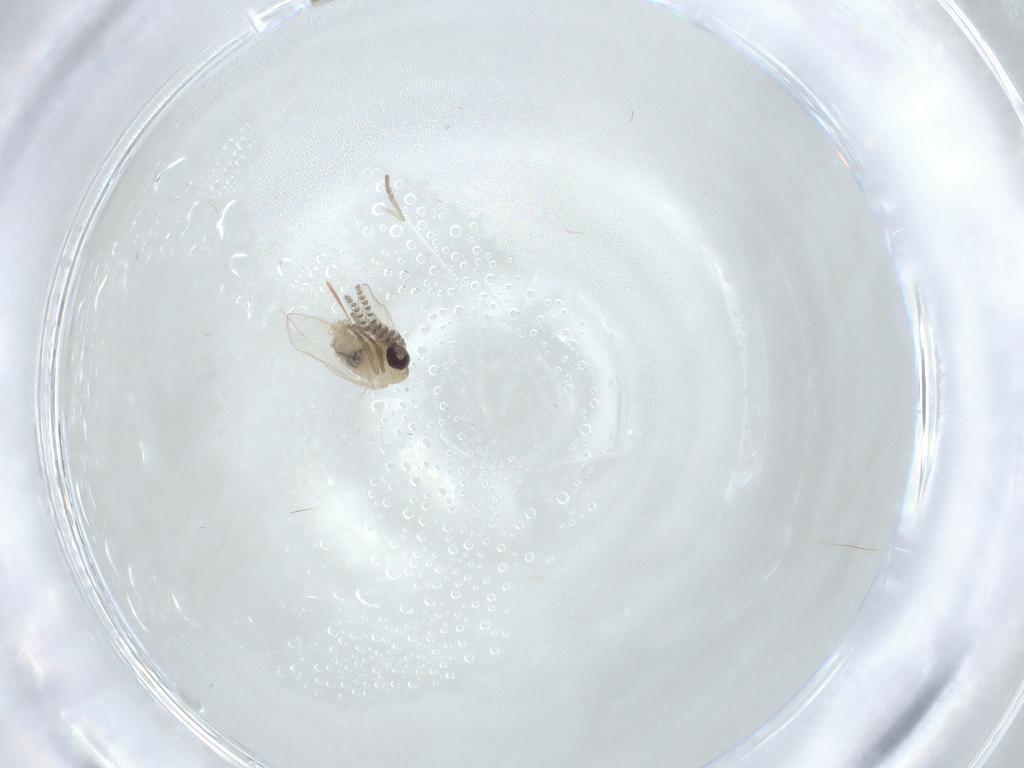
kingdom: Animalia
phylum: Arthropoda
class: Insecta
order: Diptera
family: Psychodidae
